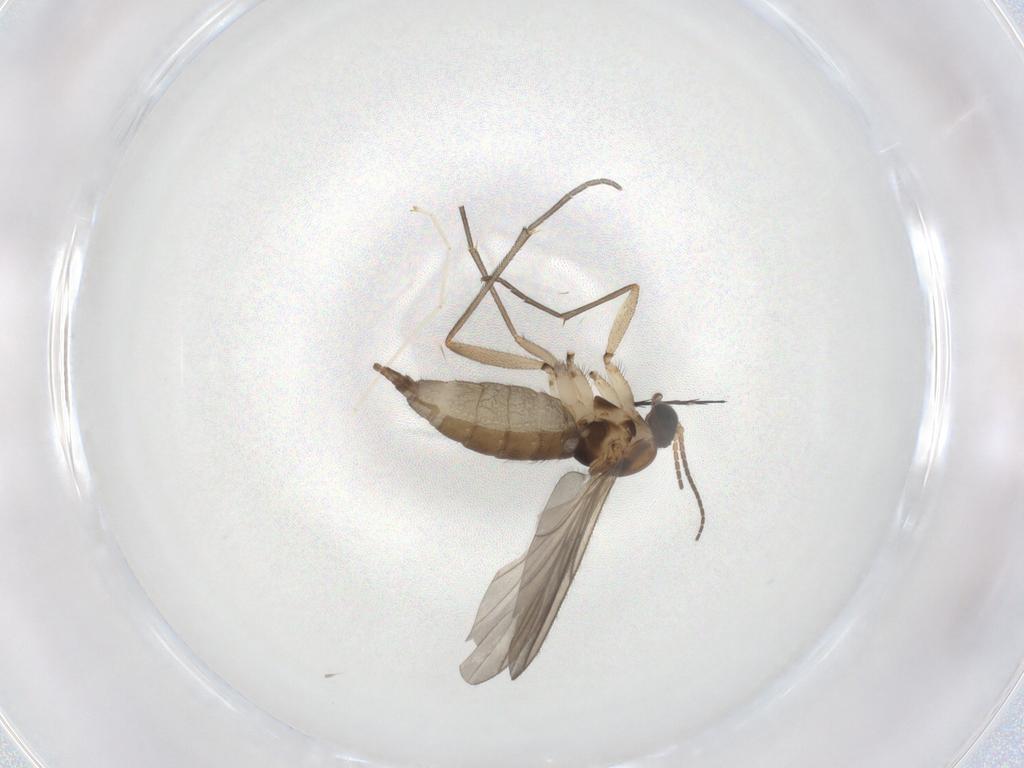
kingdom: Animalia
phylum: Arthropoda
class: Insecta
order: Diptera
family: Sciaridae
